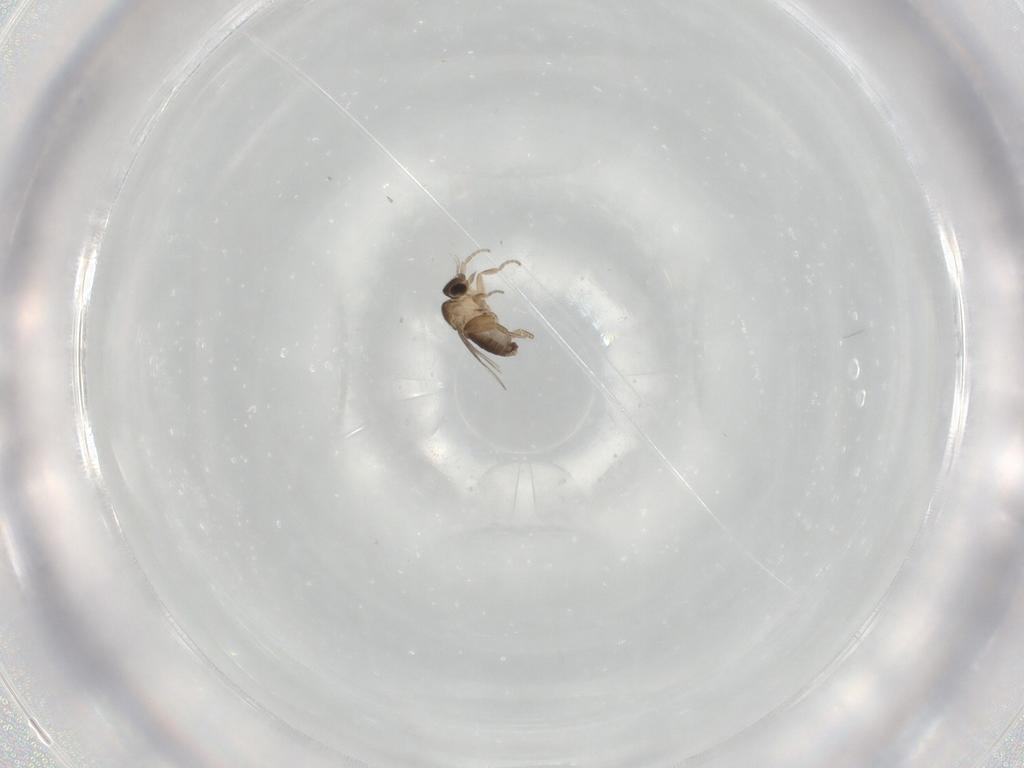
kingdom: Animalia
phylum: Arthropoda
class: Insecta
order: Diptera
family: Phoridae
